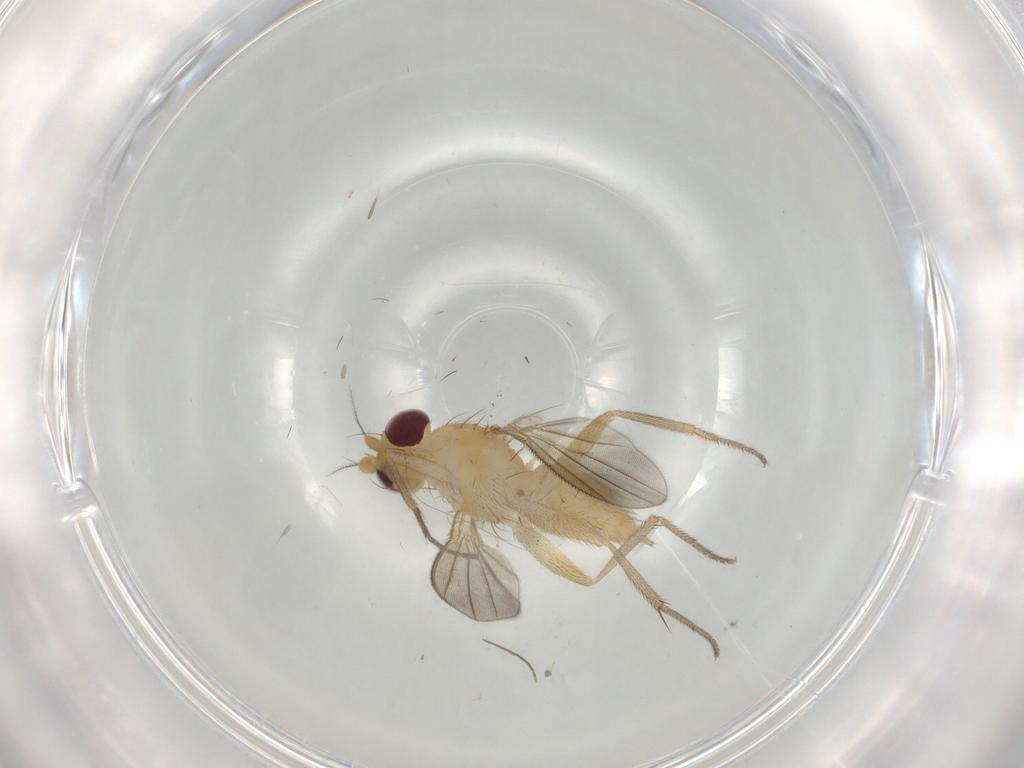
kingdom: Animalia
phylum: Arthropoda
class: Insecta
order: Diptera
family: Clusiidae
